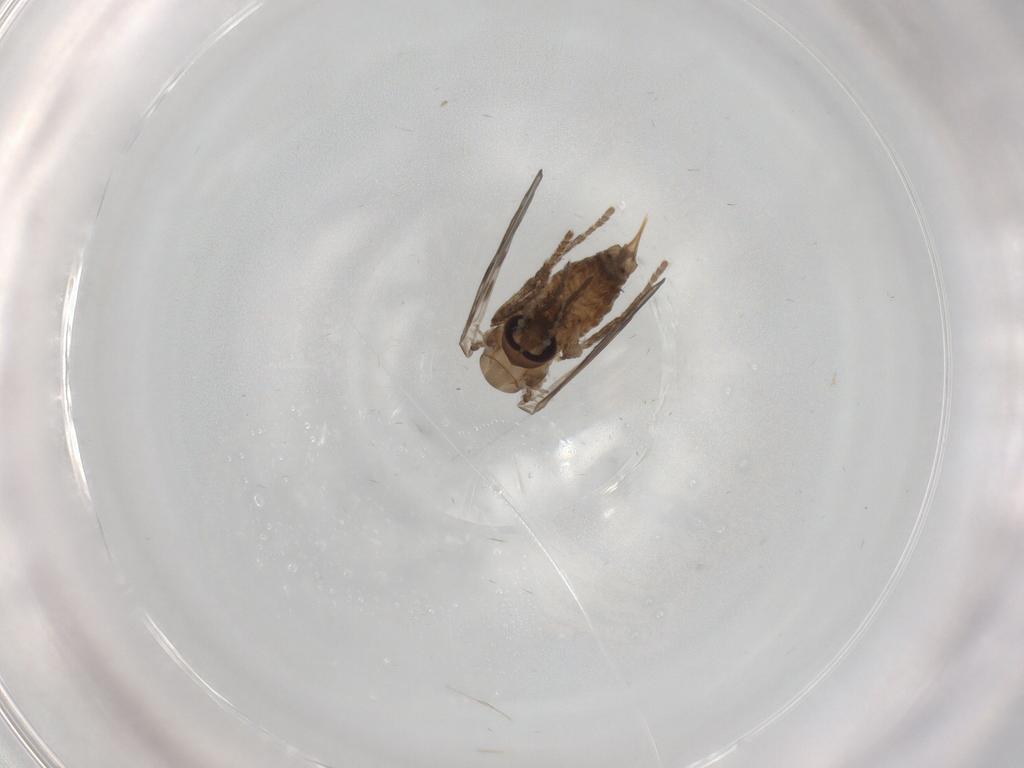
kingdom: Animalia
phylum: Arthropoda
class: Insecta
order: Diptera
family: Psychodidae
